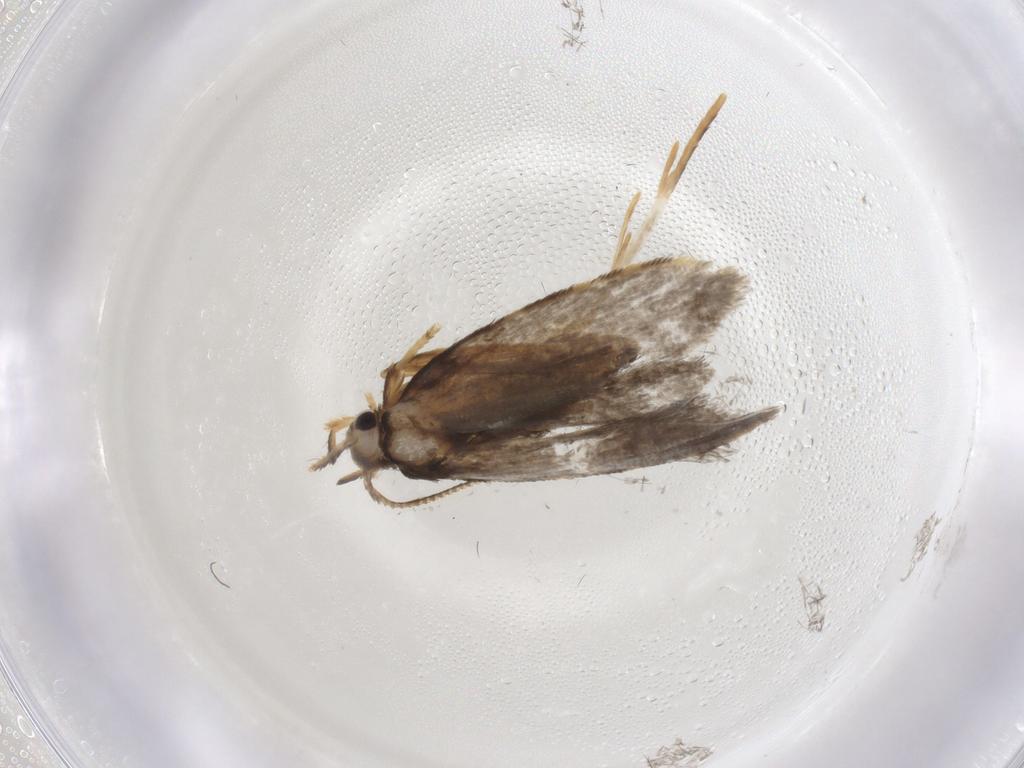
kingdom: Animalia
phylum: Arthropoda
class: Insecta
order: Lepidoptera
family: Psychidae
